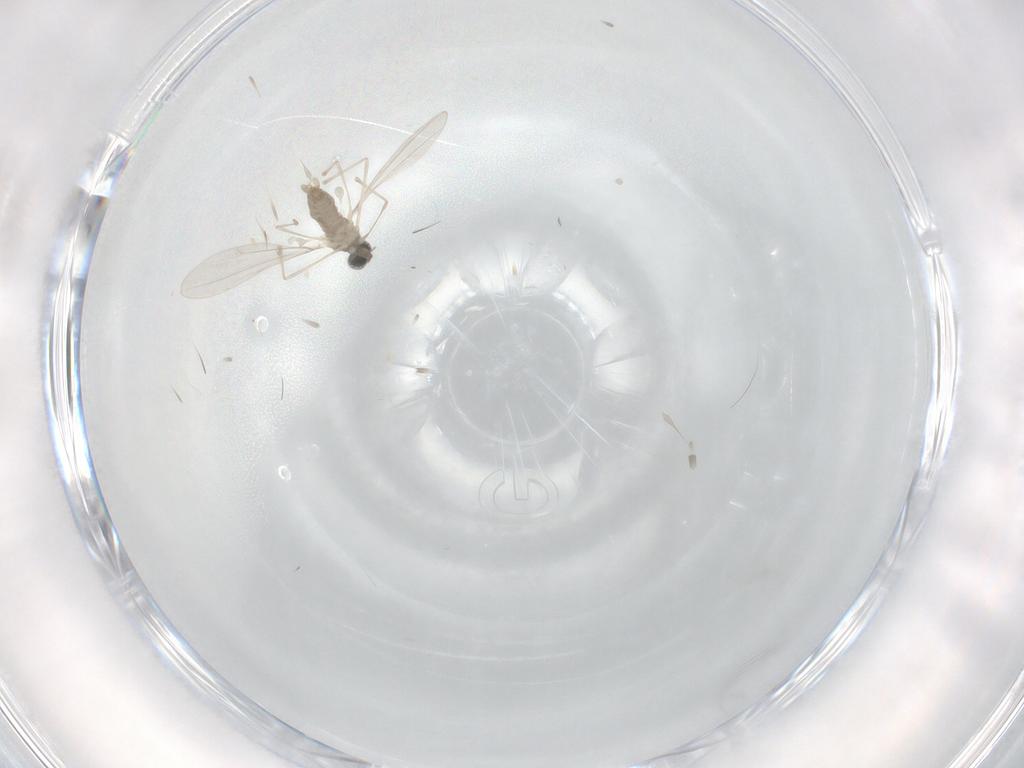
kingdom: Animalia
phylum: Arthropoda
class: Insecta
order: Diptera
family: Cecidomyiidae
